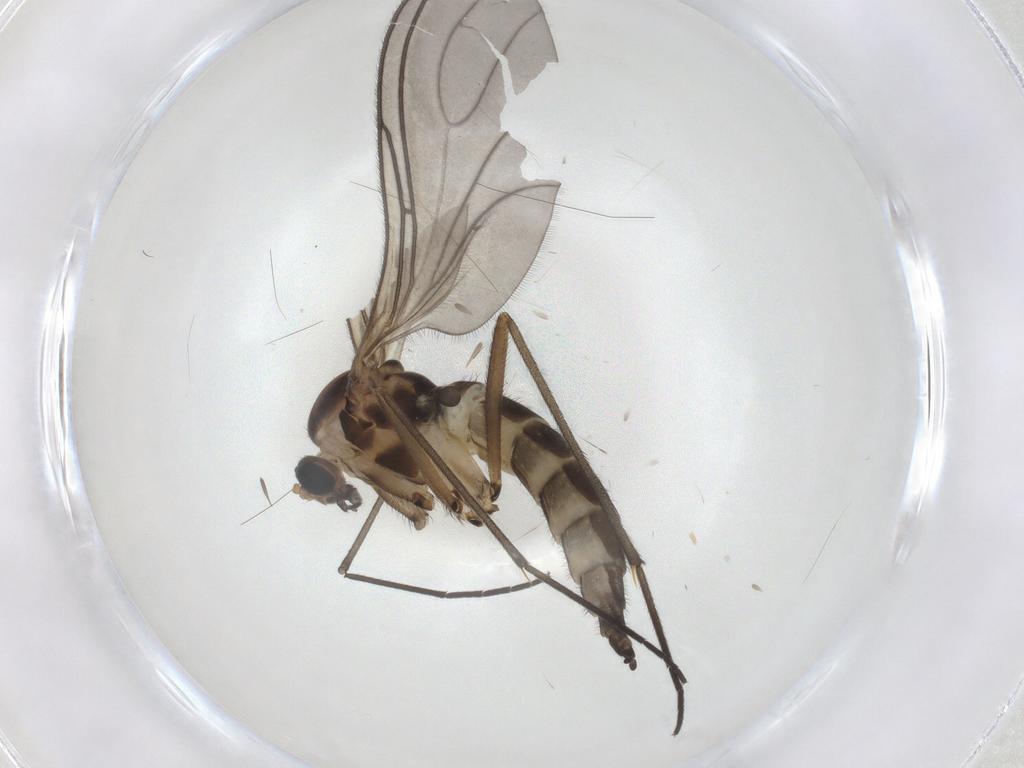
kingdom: Animalia
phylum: Arthropoda
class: Insecta
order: Diptera
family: Sciaridae
